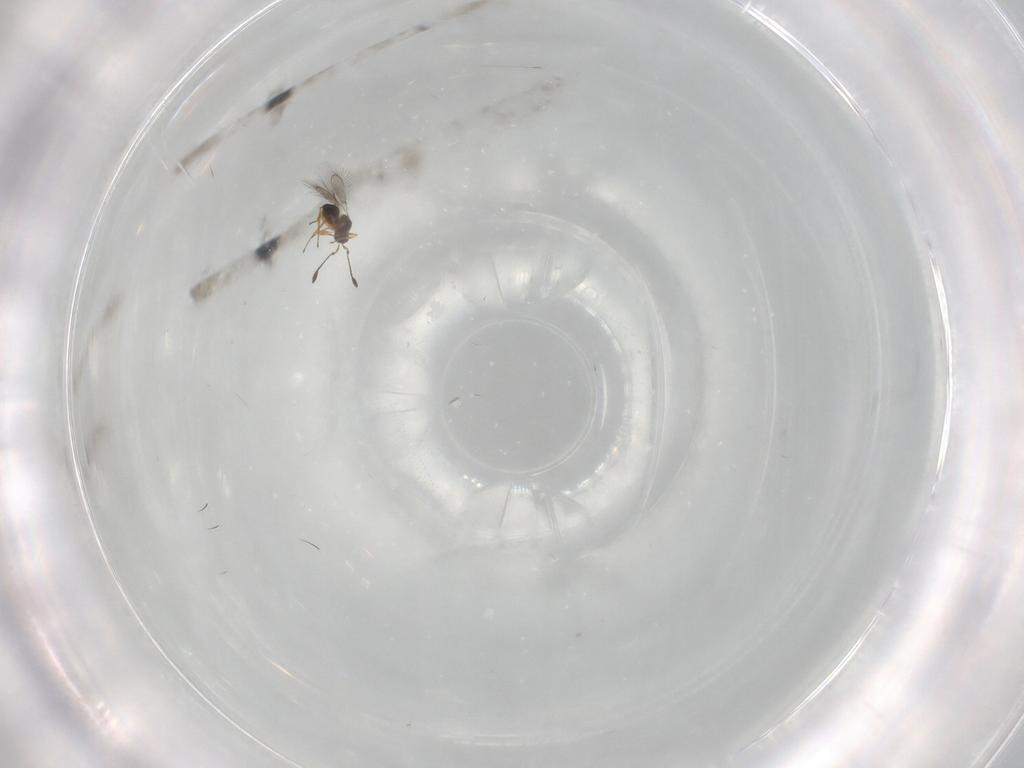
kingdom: Animalia
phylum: Arthropoda
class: Insecta
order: Hymenoptera
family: Mymaridae
